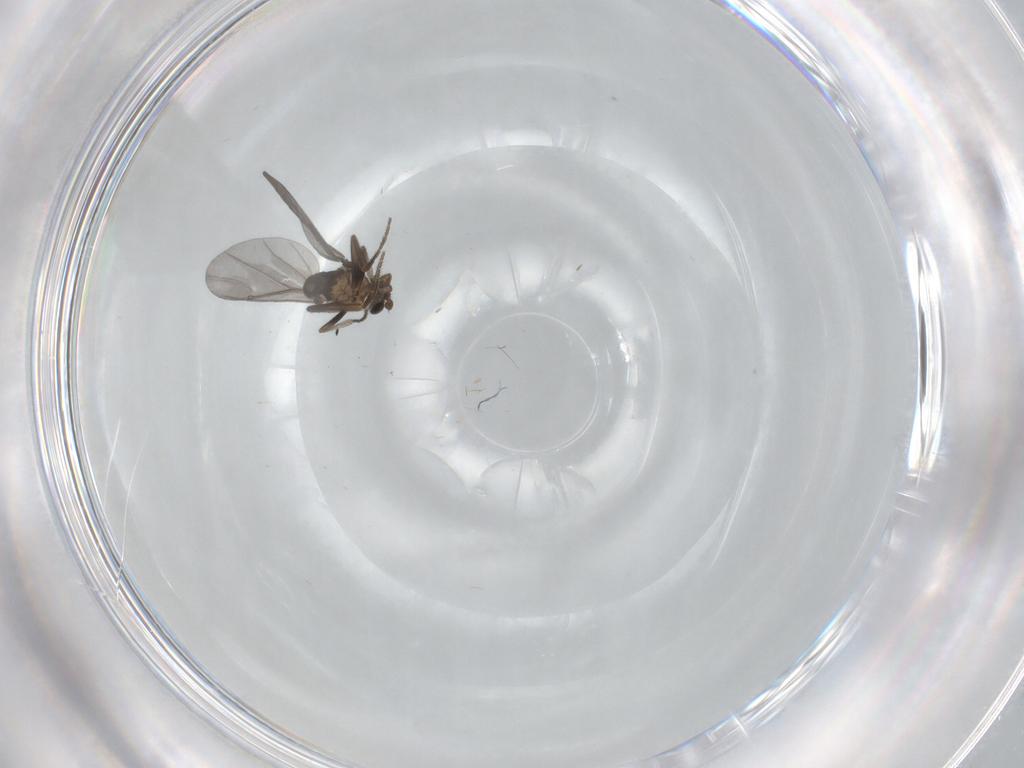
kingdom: Animalia
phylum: Arthropoda
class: Insecta
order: Diptera
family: Phoridae
